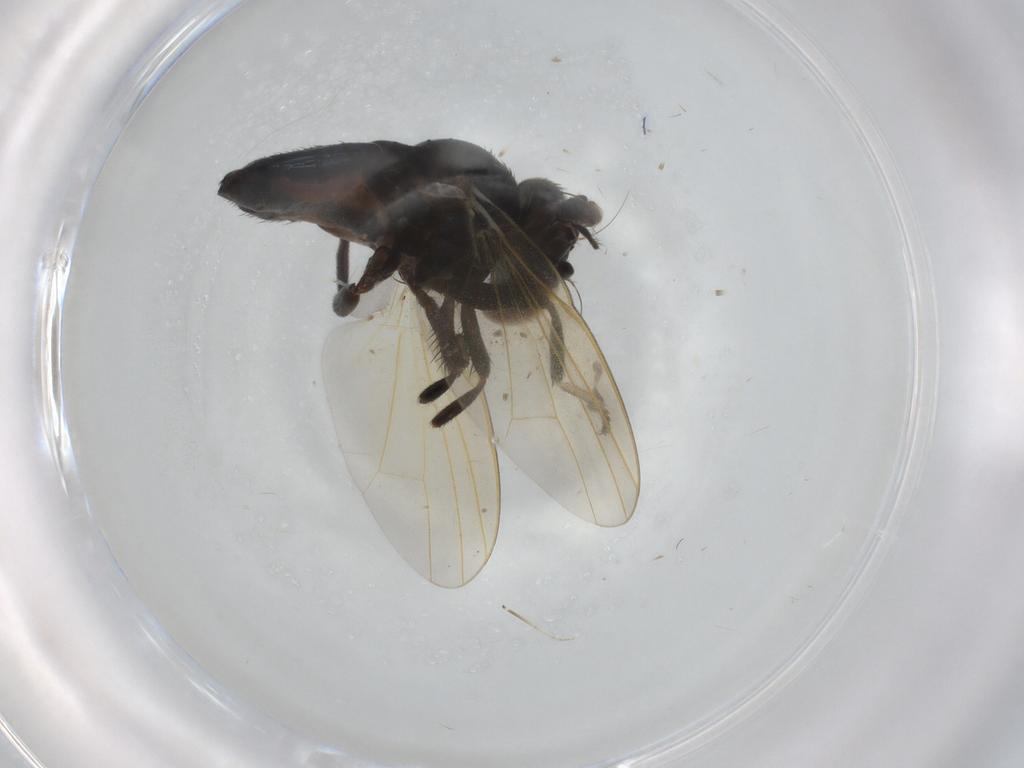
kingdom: Animalia
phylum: Arthropoda
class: Insecta
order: Diptera
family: Lonchaeidae
